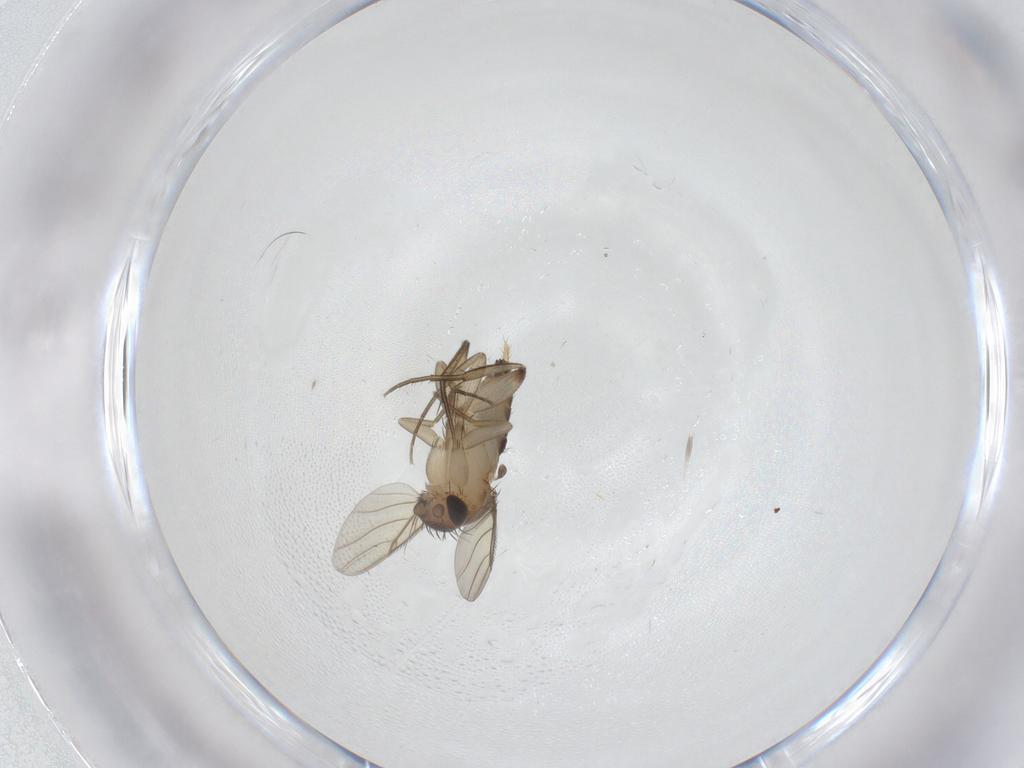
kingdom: Animalia
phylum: Arthropoda
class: Insecta
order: Diptera
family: Phoridae
